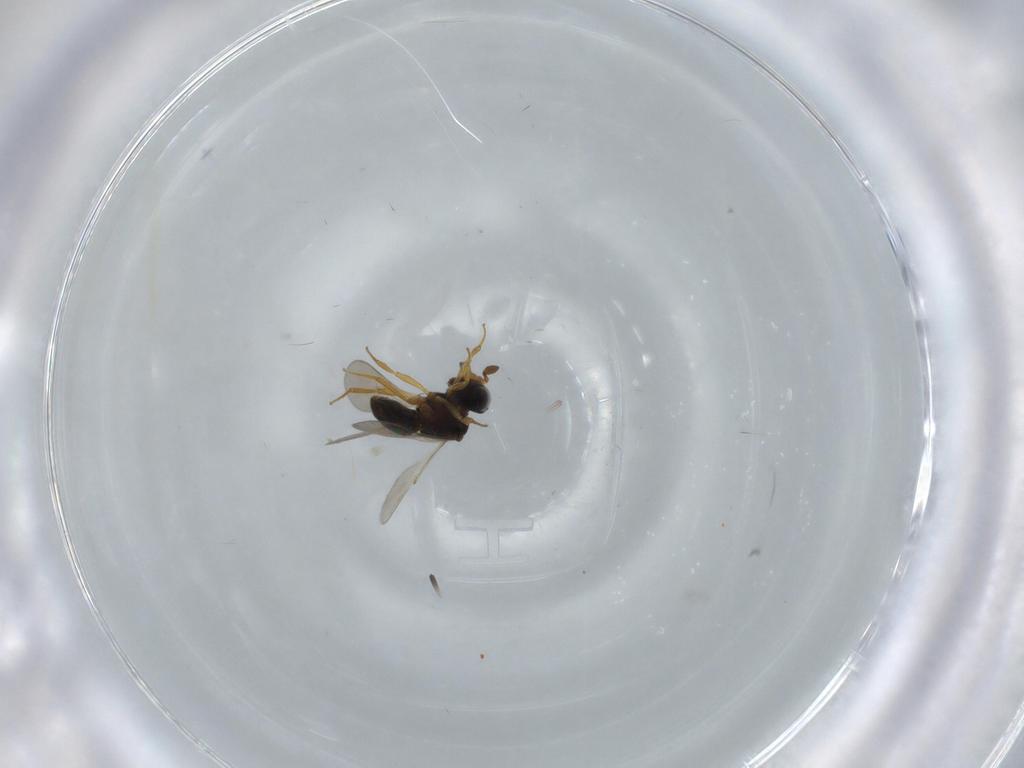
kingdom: Animalia
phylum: Arthropoda
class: Insecta
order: Hymenoptera
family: Scelionidae
